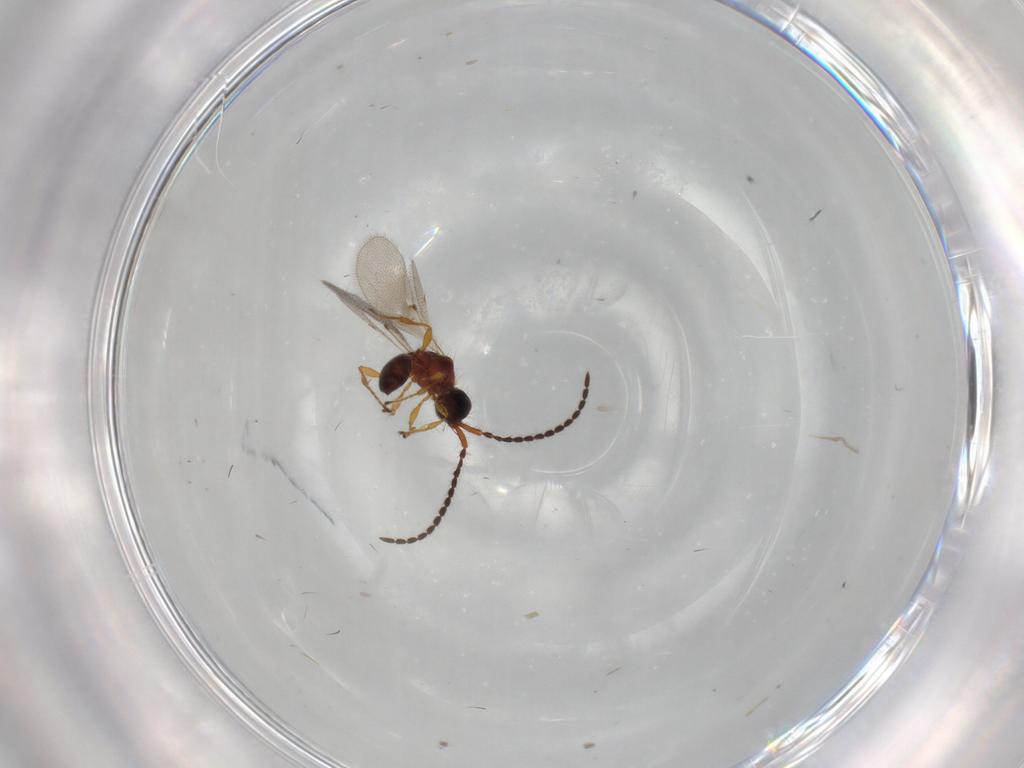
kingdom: Animalia
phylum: Arthropoda
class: Insecta
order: Hymenoptera
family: Diapriidae
